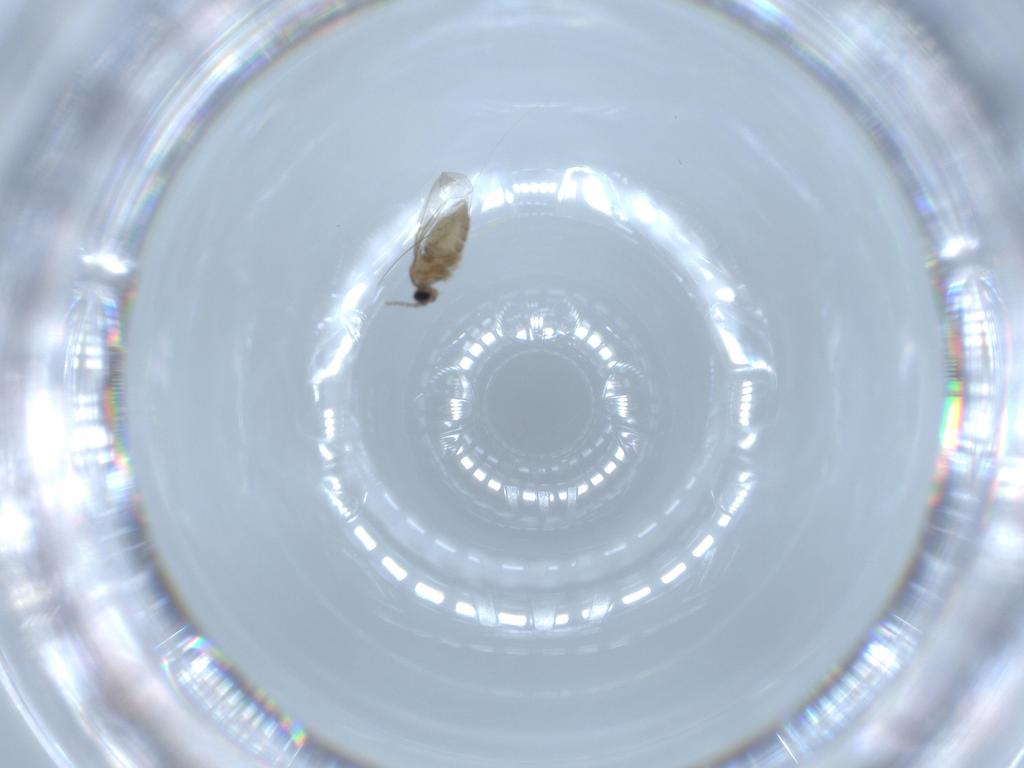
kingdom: Animalia
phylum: Arthropoda
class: Insecta
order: Diptera
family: Cecidomyiidae
